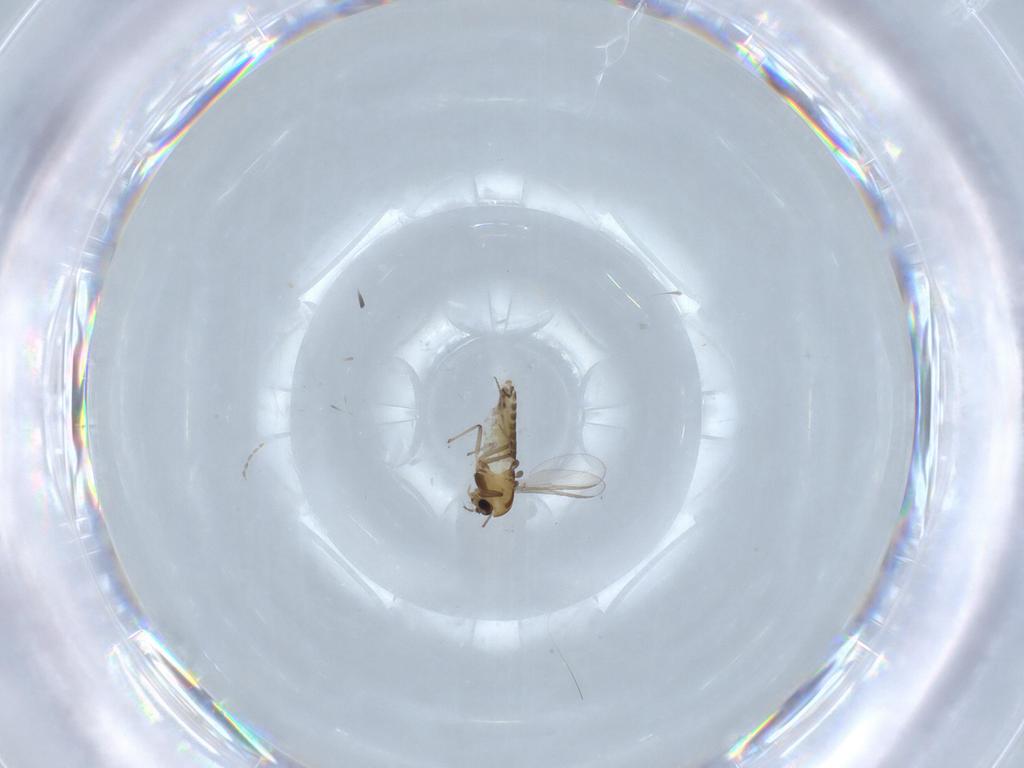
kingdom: Animalia
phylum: Arthropoda
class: Insecta
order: Diptera
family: Chironomidae
